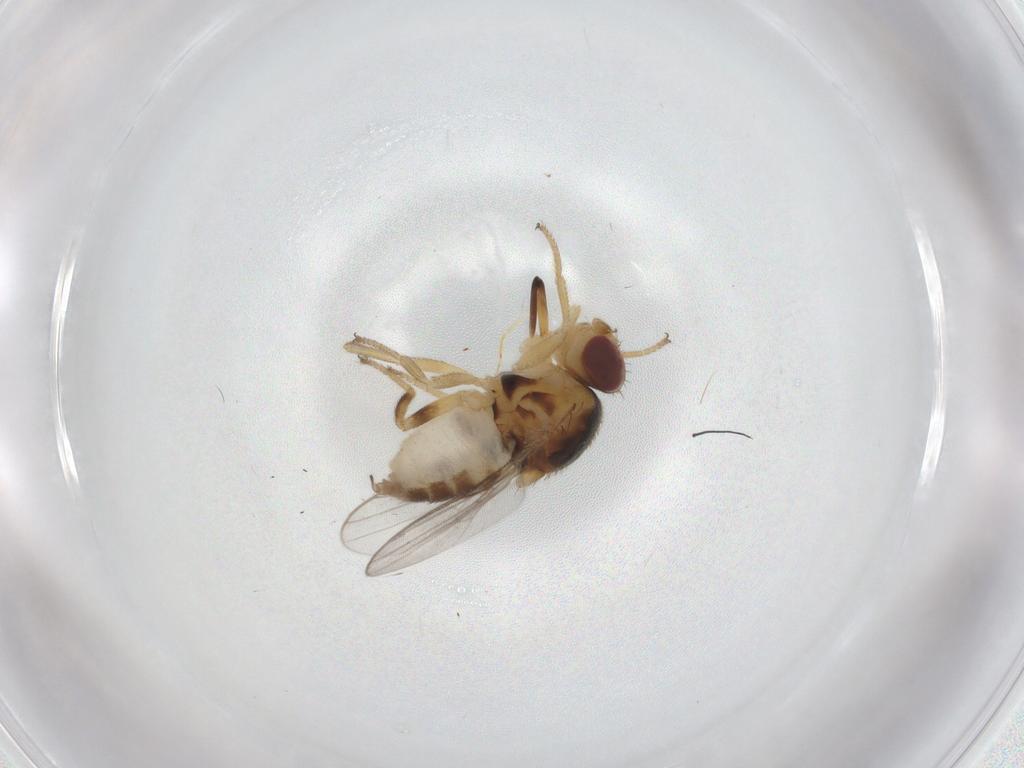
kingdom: Animalia
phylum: Arthropoda
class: Insecta
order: Diptera
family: Chloropidae
